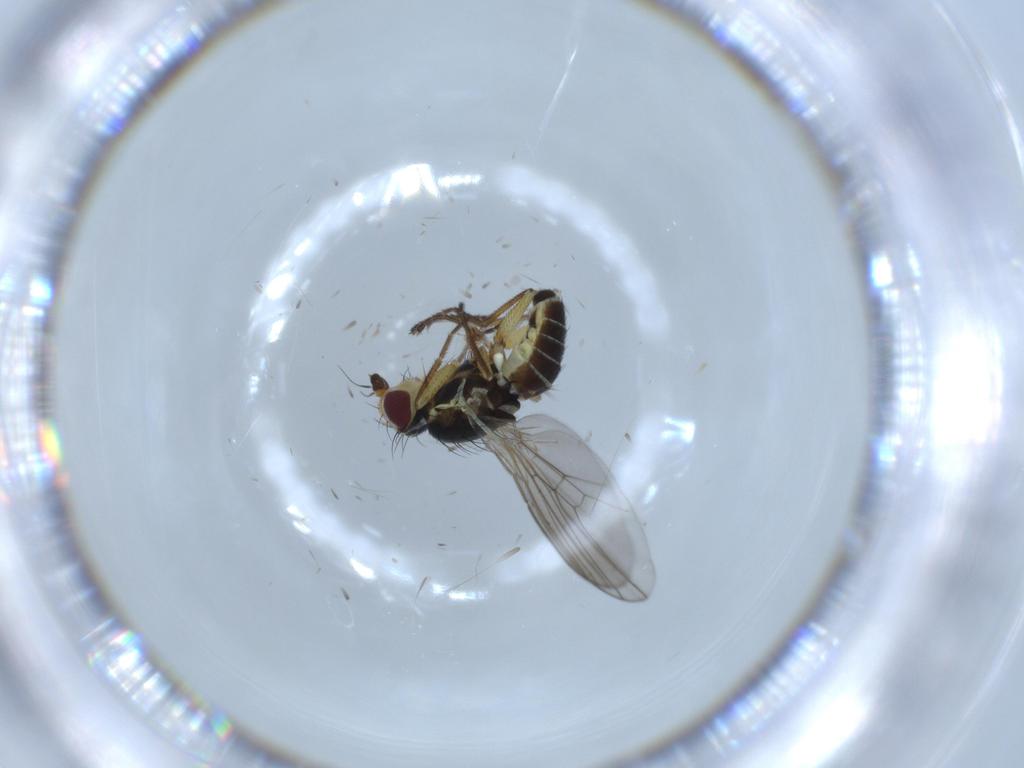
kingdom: Animalia
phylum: Arthropoda
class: Insecta
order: Diptera
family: Agromyzidae
